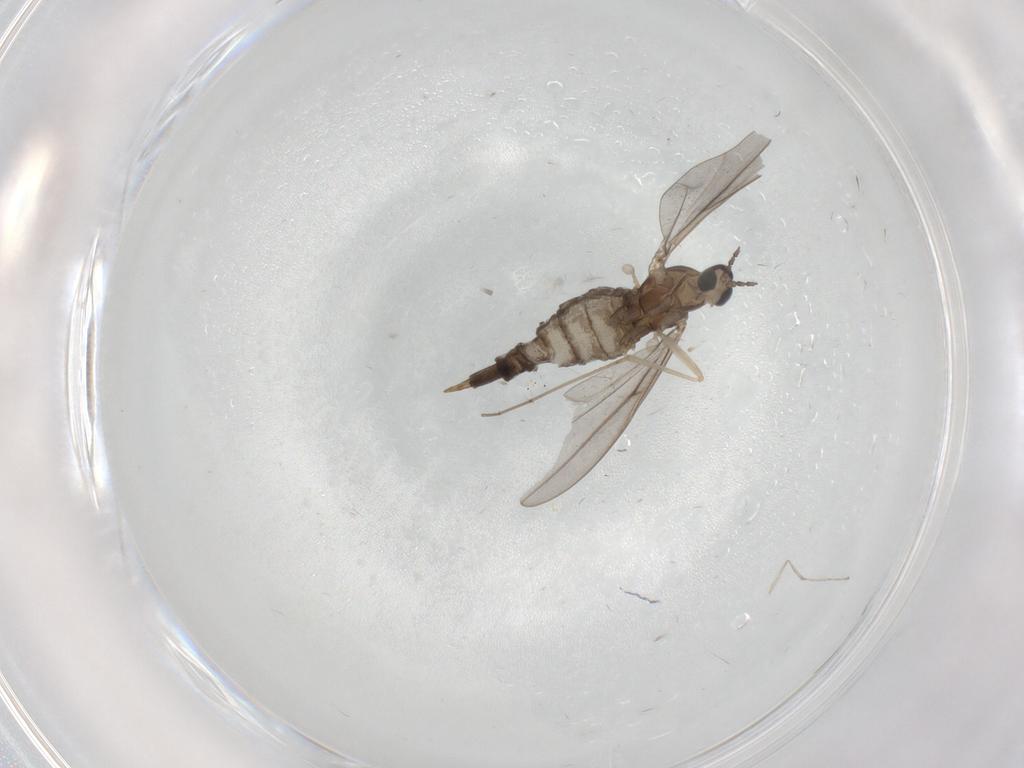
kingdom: Animalia
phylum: Arthropoda
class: Insecta
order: Diptera
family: Cecidomyiidae
